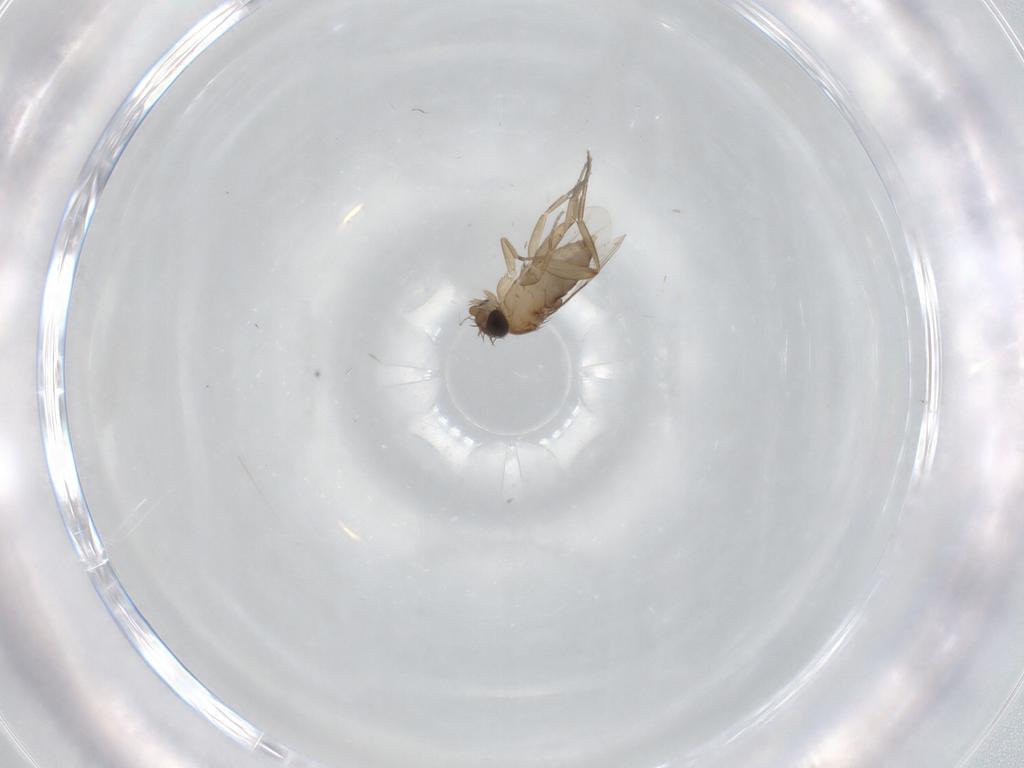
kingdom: Animalia
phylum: Arthropoda
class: Insecta
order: Diptera
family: Phoridae
